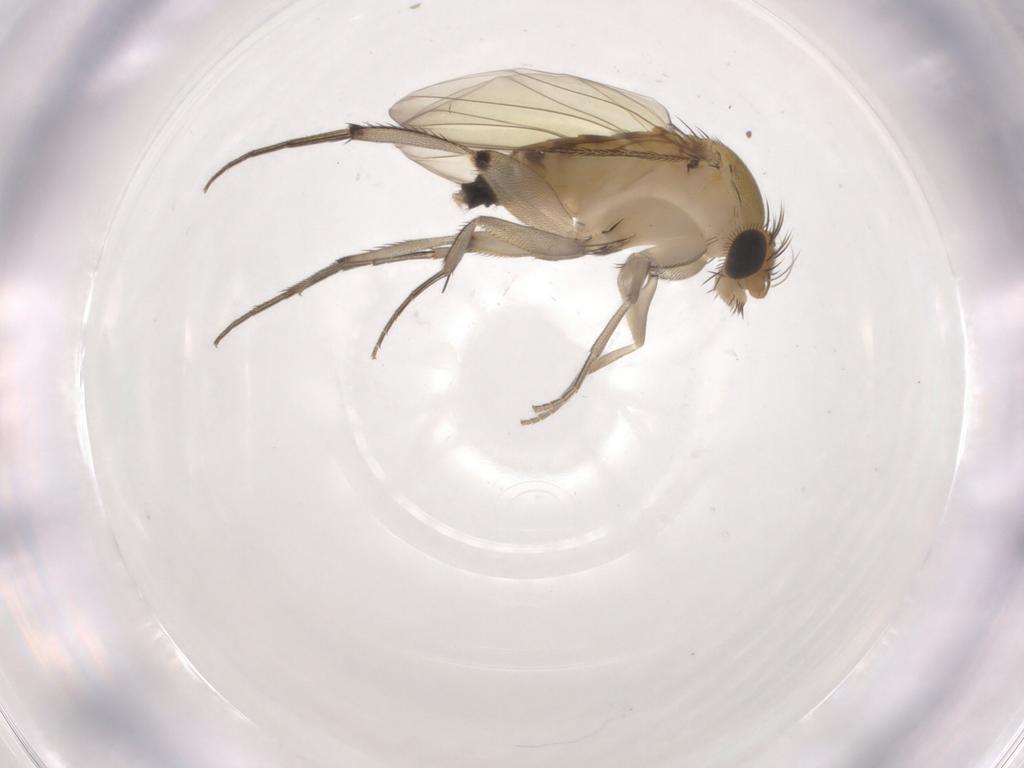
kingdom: Animalia
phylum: Arthropoda
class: Insecta
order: Diptera
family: Phoridae
